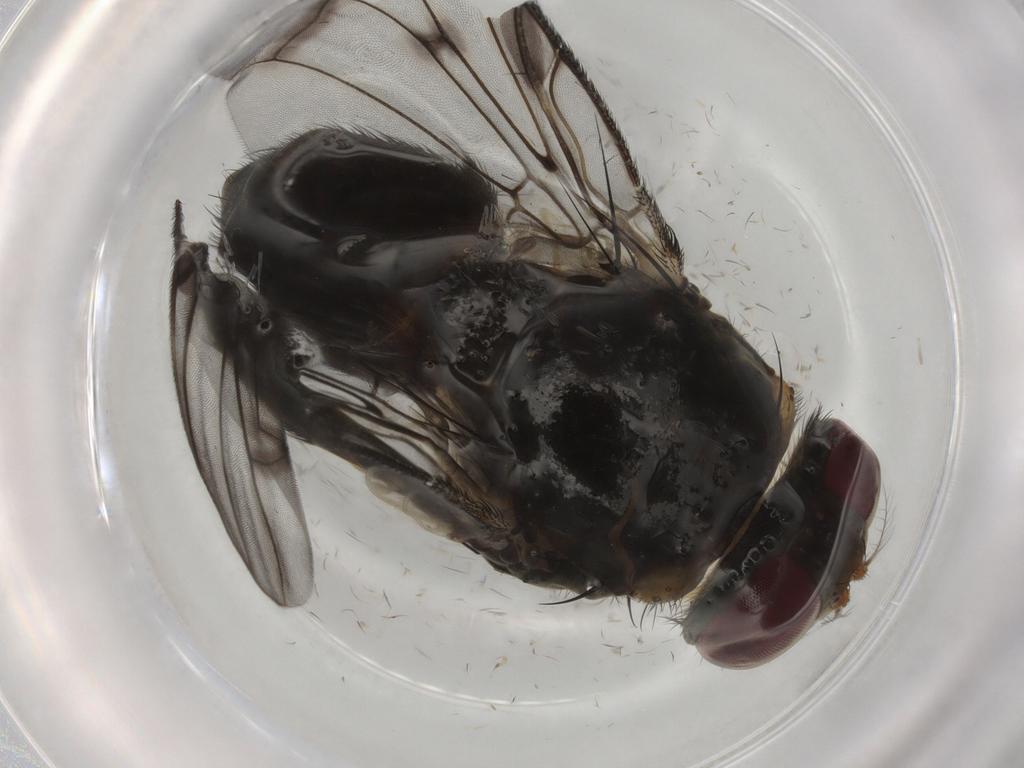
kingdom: Animalia
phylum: Arthropoda
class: Insecta
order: Diptera
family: Muscidae
